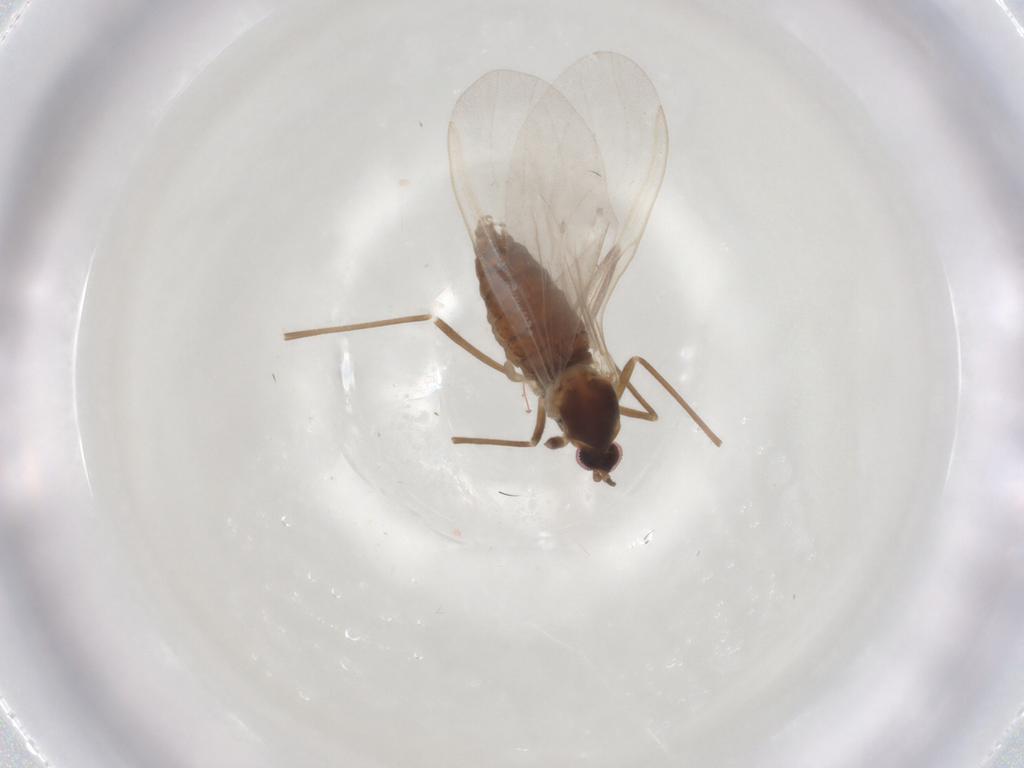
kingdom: Animalia
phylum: Arthropoda
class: Insecta
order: Diptera
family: Cecidomyiidae
